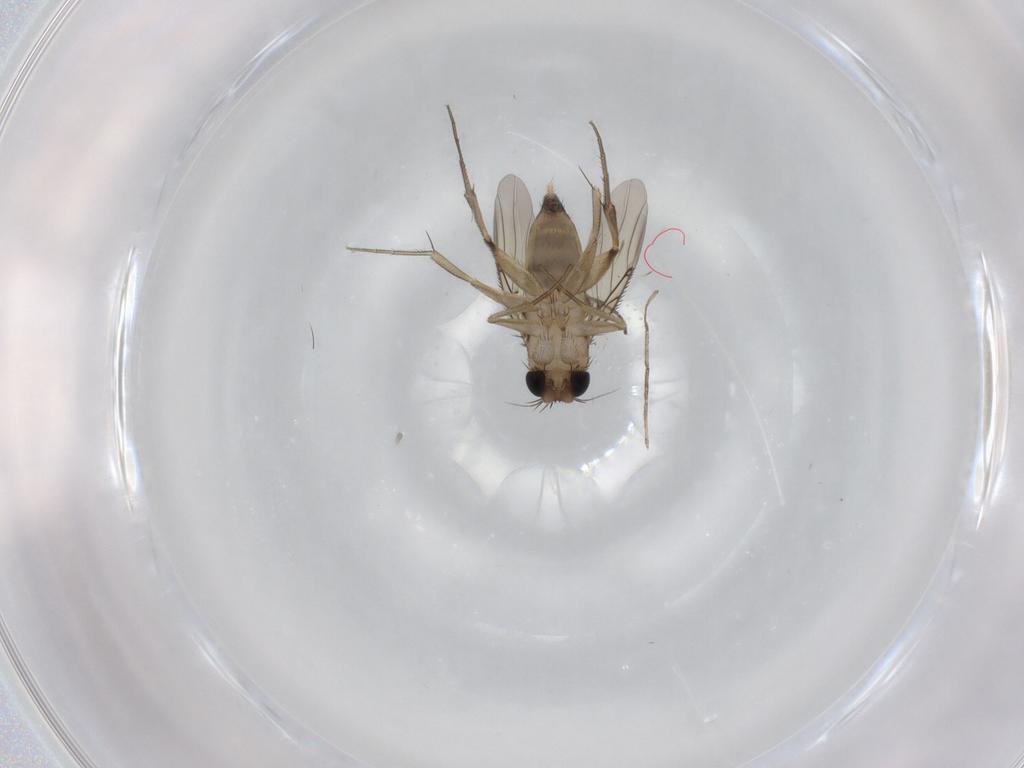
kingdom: Animalia
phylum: Arthropoda
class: Insecta
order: Diptera
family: Phoridae
